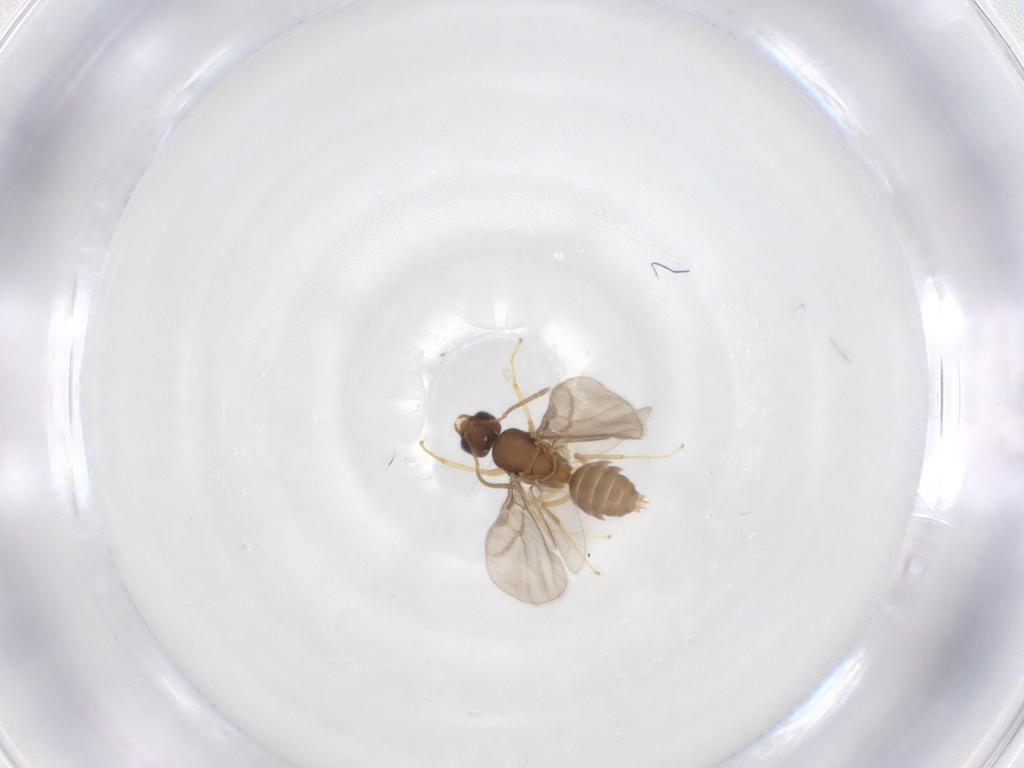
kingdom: Animalia
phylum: Arthropoda
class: Insecta
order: Hymenoptera
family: Formicidae
